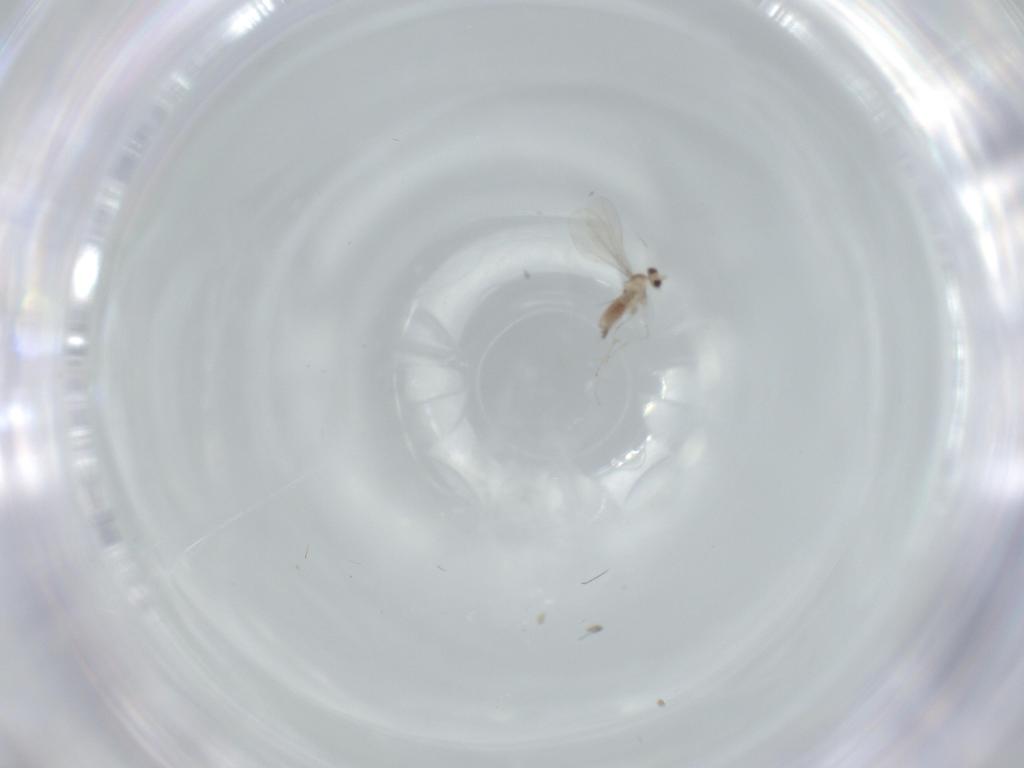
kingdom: Animalia
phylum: Arthropoda
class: Insecta
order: Diptera
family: Cecidomyiidae
